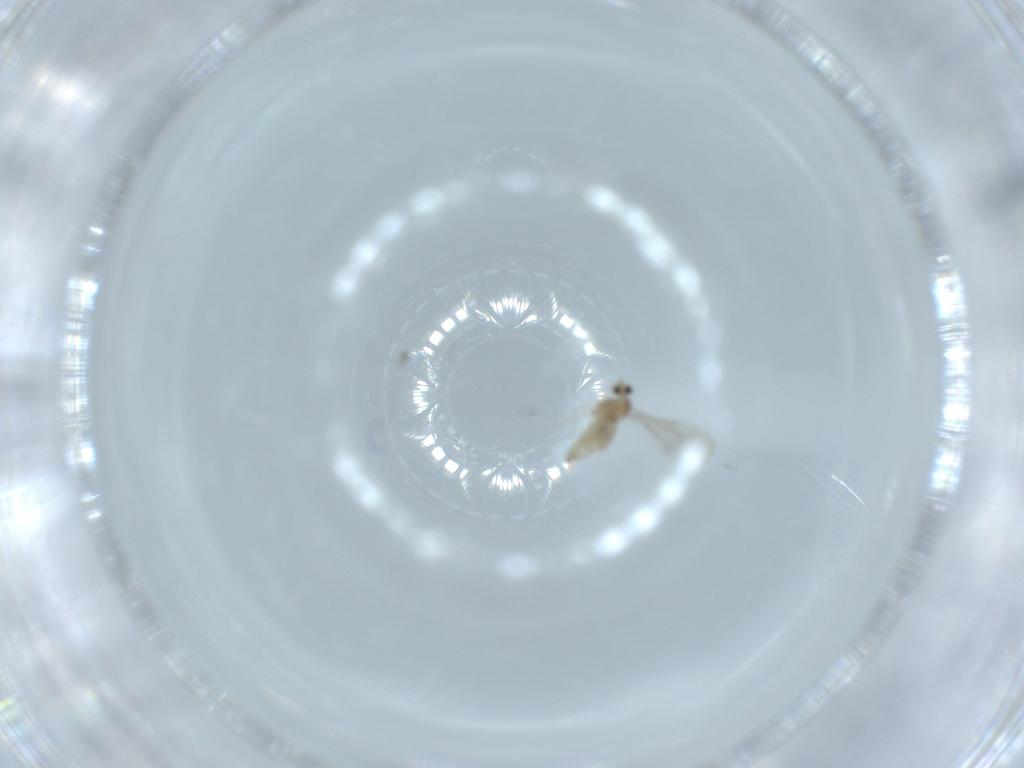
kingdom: Animalia
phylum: Arthropoda
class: Insecta
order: Diptera
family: Cecidomyiidae
